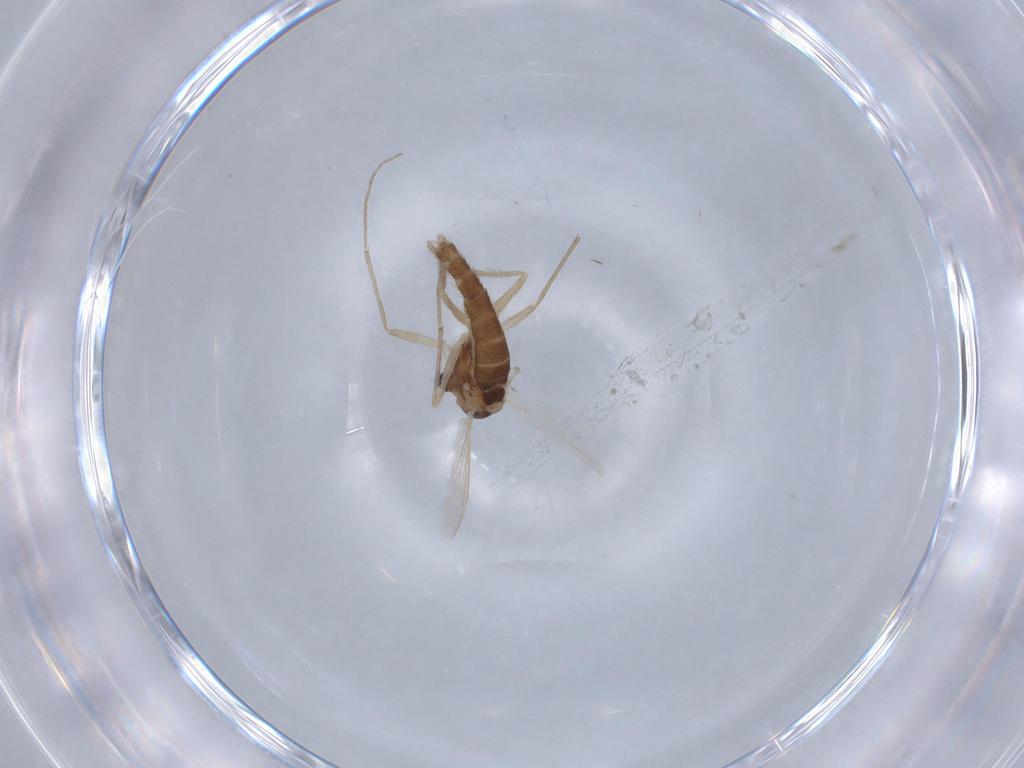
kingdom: Animalia
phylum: Arthropoda
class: Insecta
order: Diptera
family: Chironomidae
